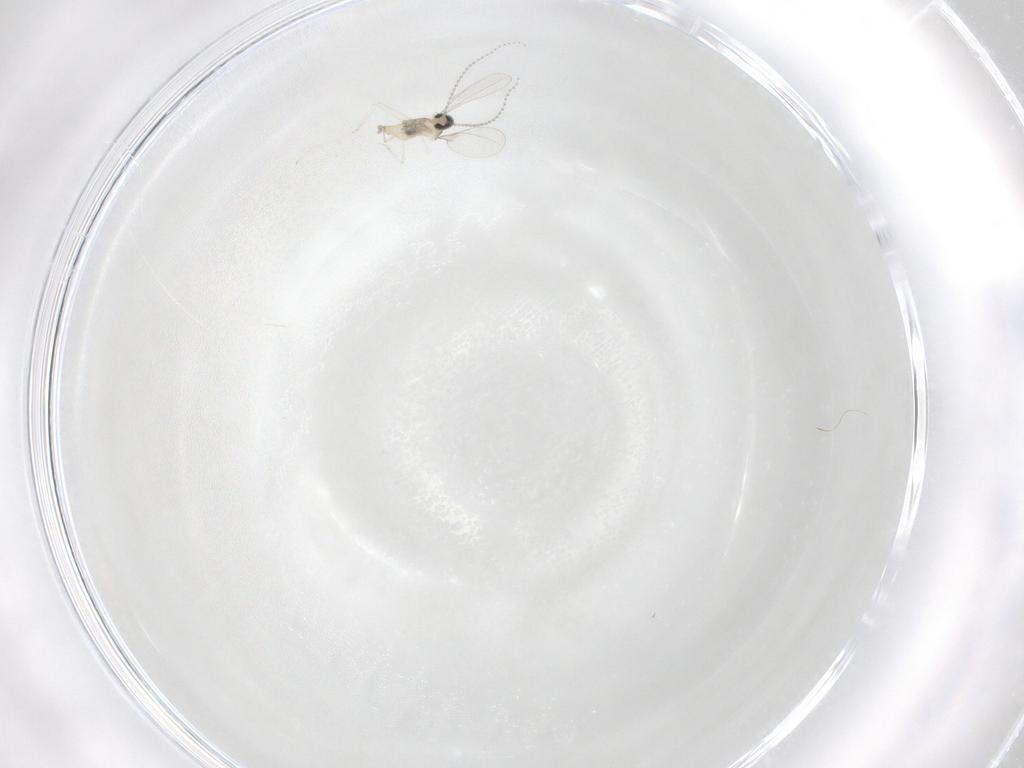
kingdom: Animalia
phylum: Arthropoda
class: Insecta
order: Diptera
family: Cecidomyiidae
